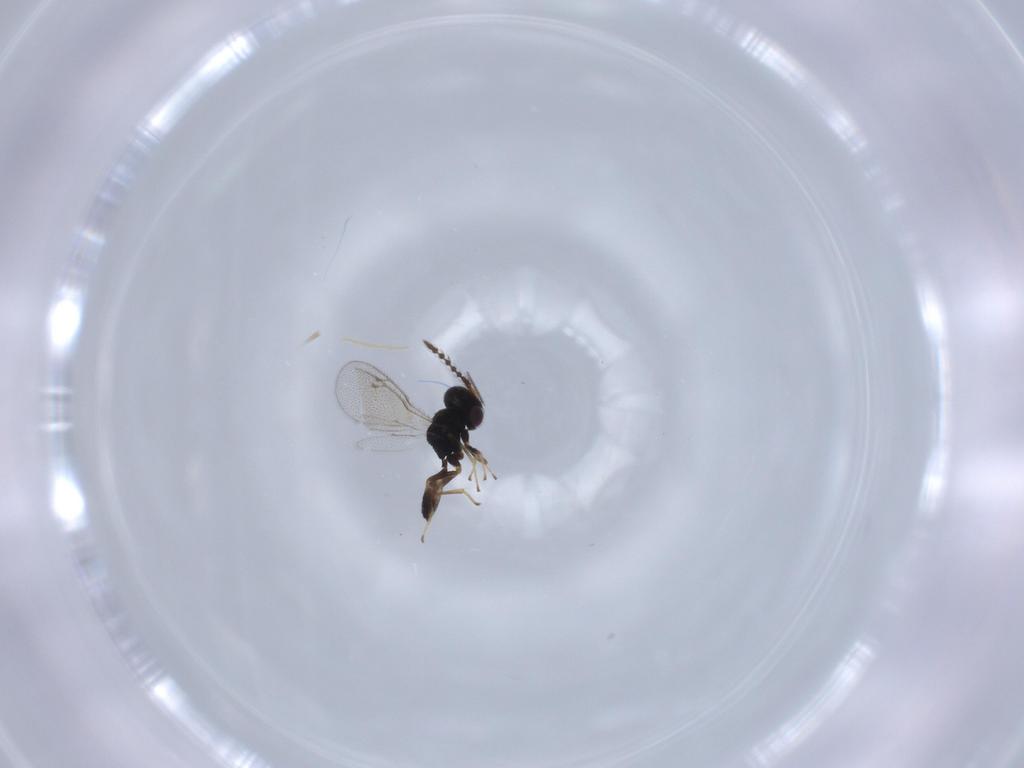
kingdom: Animalia
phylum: Arthropoda
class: Insecta
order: Hymenoptera
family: Pteromalidae
